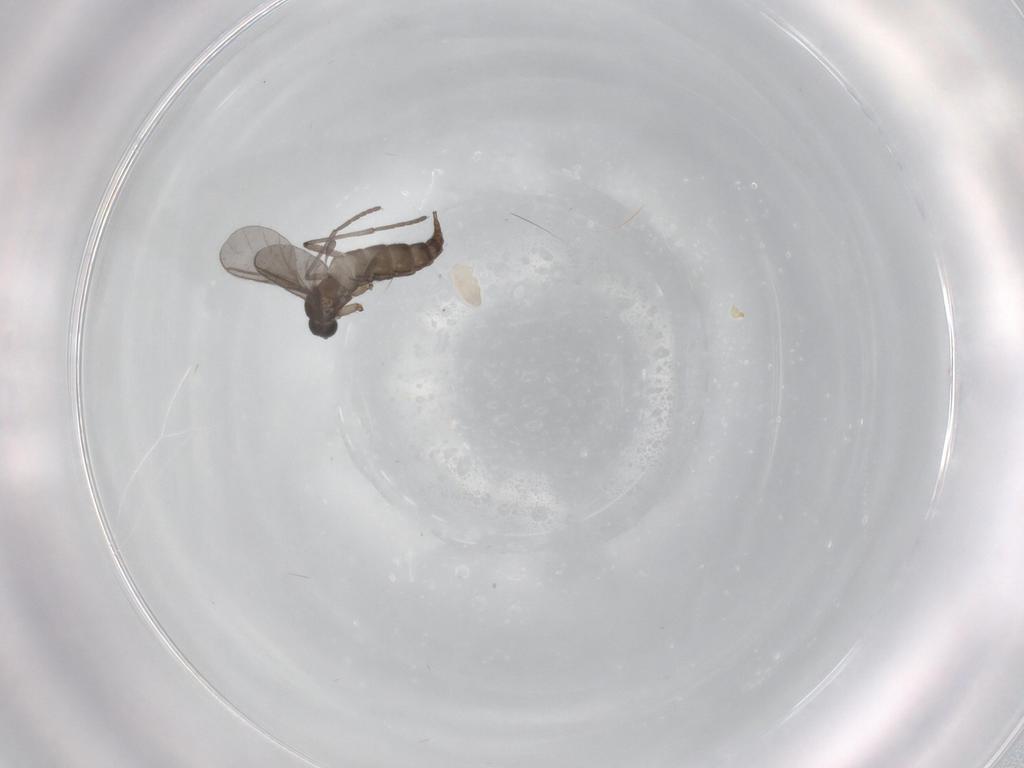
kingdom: Animalia
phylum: Arthropoda
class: Insecta
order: Diptera
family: Sciaridae
